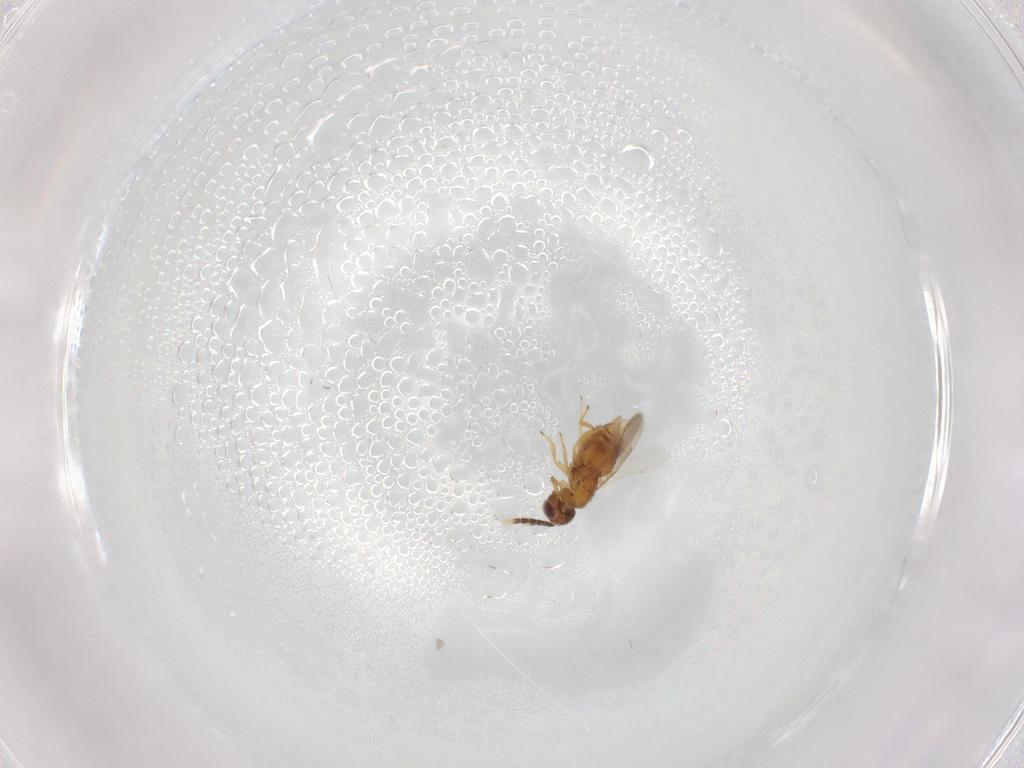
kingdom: Animalia
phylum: Arthropoda
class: Insecta
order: Hymenoptera
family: Aphelinidae
